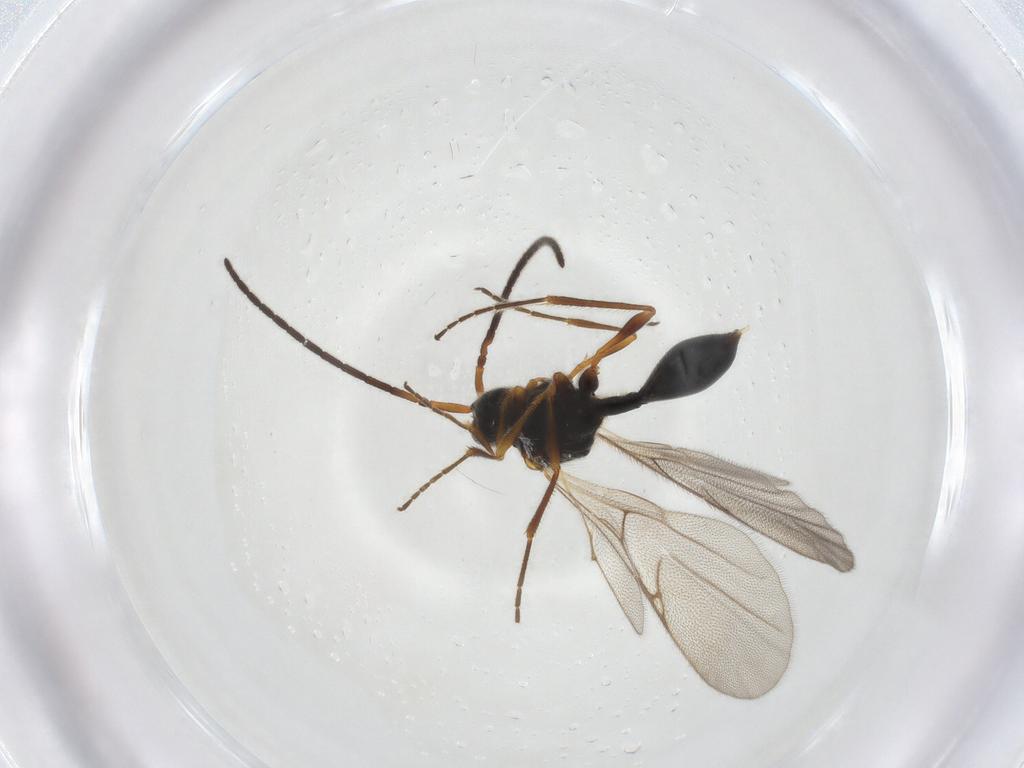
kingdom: Animalia
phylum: Arthropoda
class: Insecta
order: Hymenoptera
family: Diapriidae
